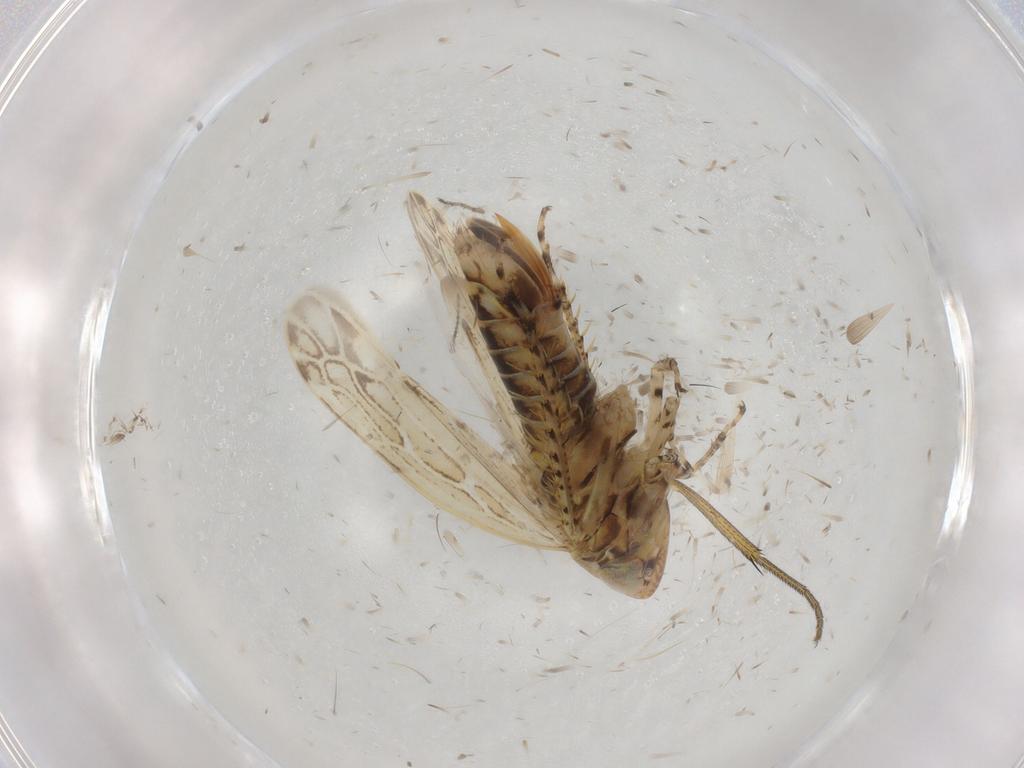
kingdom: Animalia
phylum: Arthropoda
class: Insecta
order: Hemiptera
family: Cicadellidae
